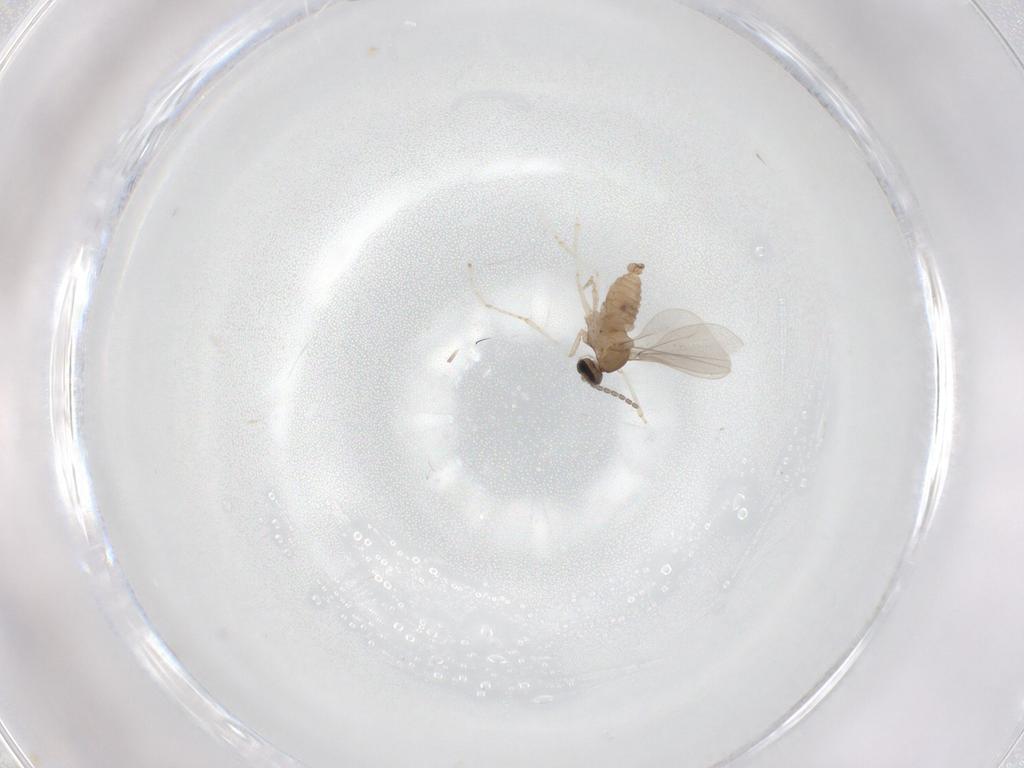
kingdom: Animalia
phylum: Arthropoda
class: Insecta
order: Diptera
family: Cecidomyiidae
